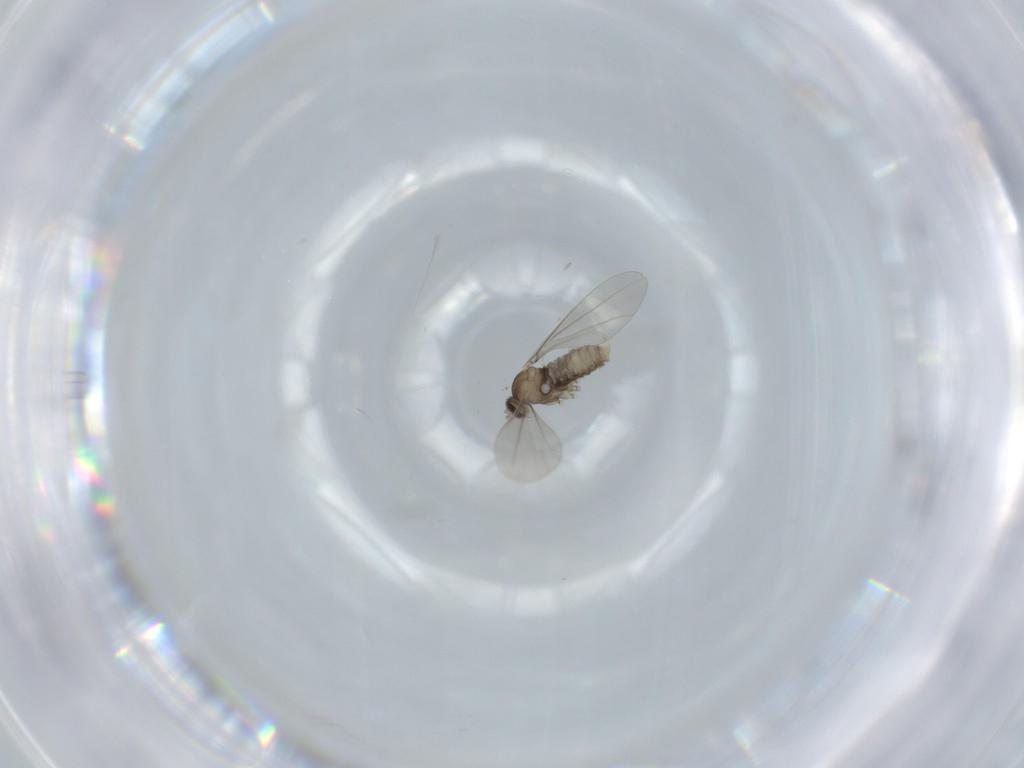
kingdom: Animalia
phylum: Arthropoda
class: Insecta
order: Diptera
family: Cecidomyiidae
